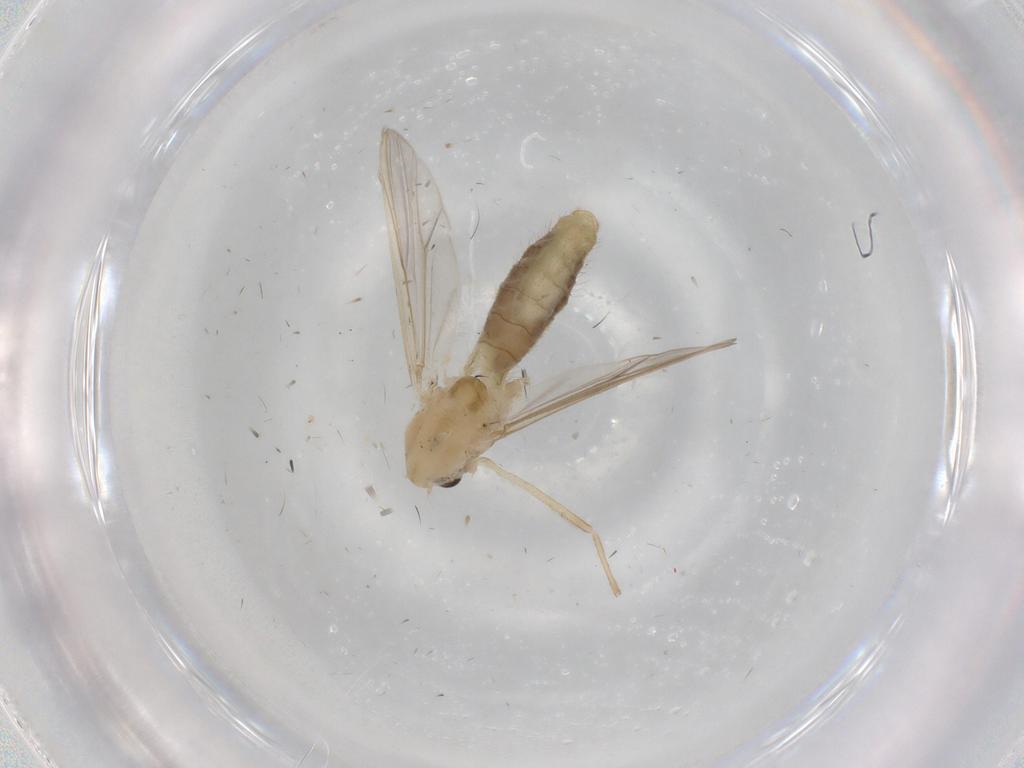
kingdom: Animalia
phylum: Arthropoda
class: Insecta
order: Diptera
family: Chironomidae
